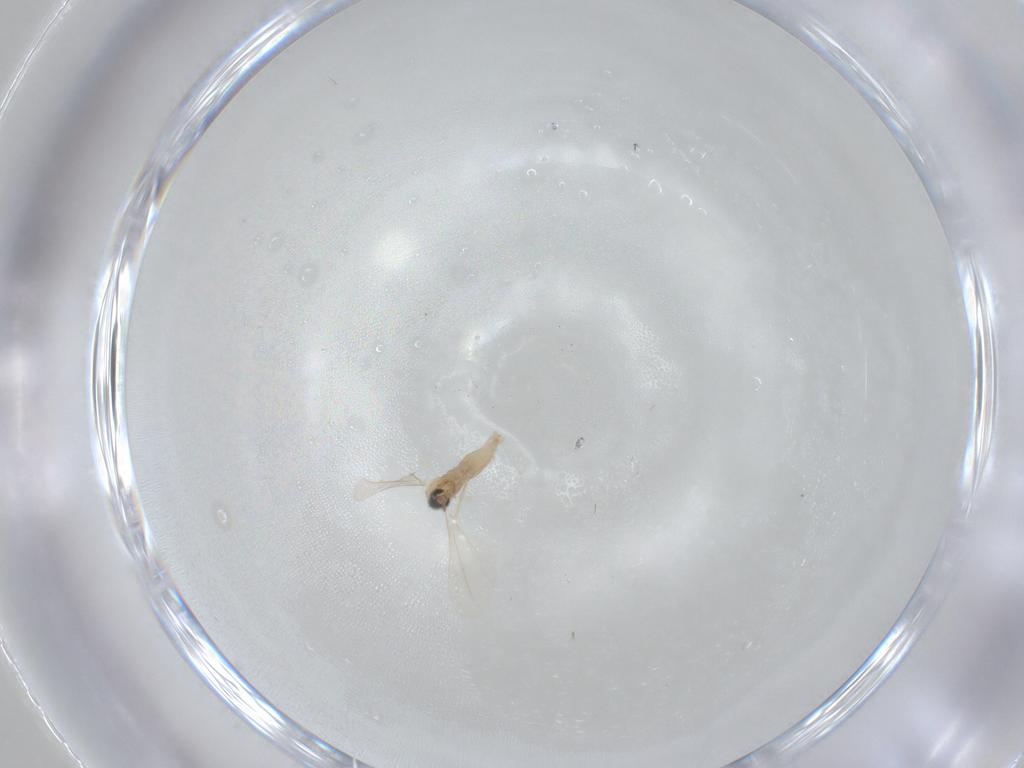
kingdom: Animalia
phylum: Arthropoda
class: Insecta
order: Diptera
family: Cecidomyiidae
